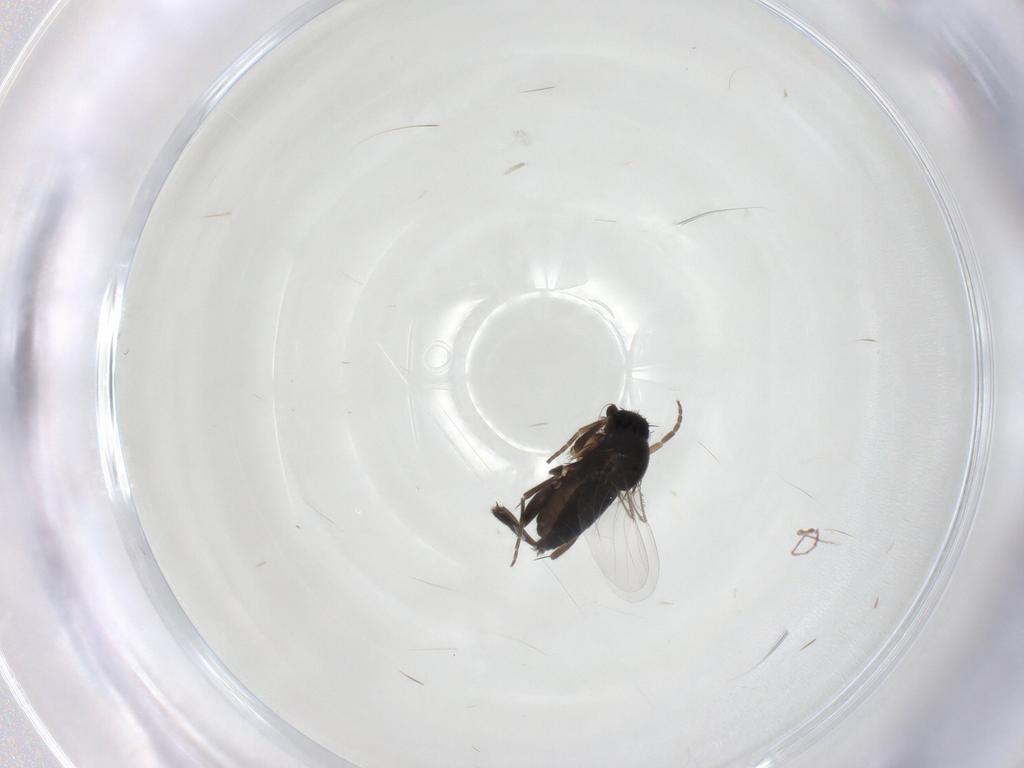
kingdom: Animalia
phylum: Arthropoda
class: Insecta
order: Diptera
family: Phoridae
